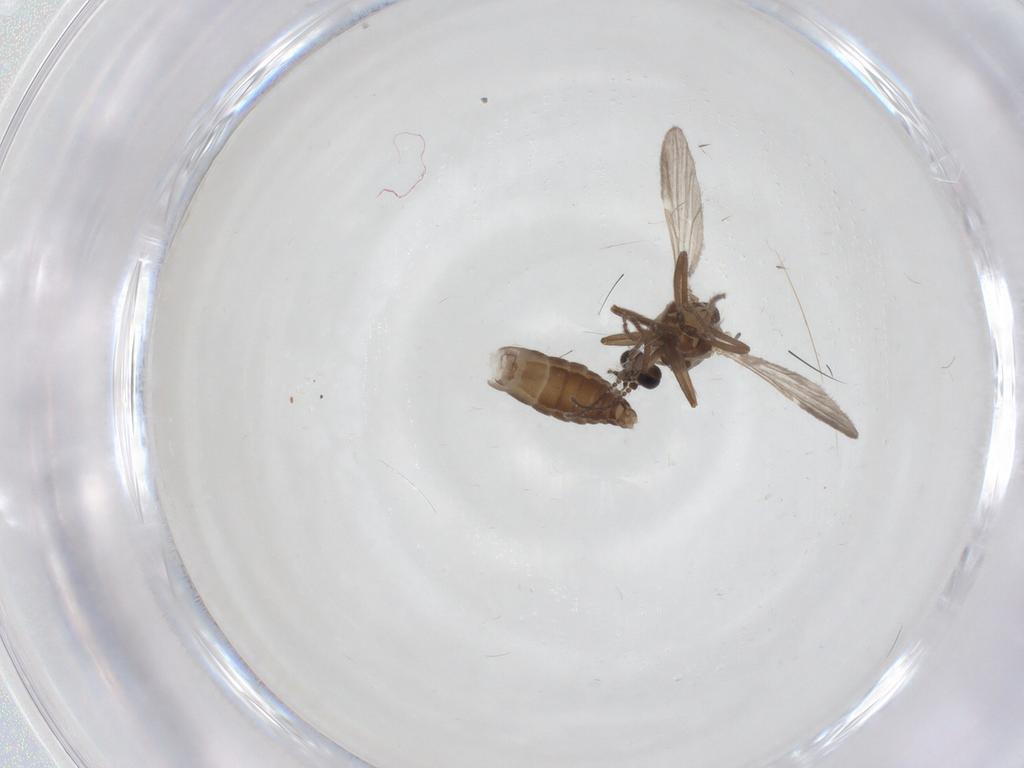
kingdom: Animalia
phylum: Arthropoda
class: Insecta
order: Diptera
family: Ceratopogonidae
